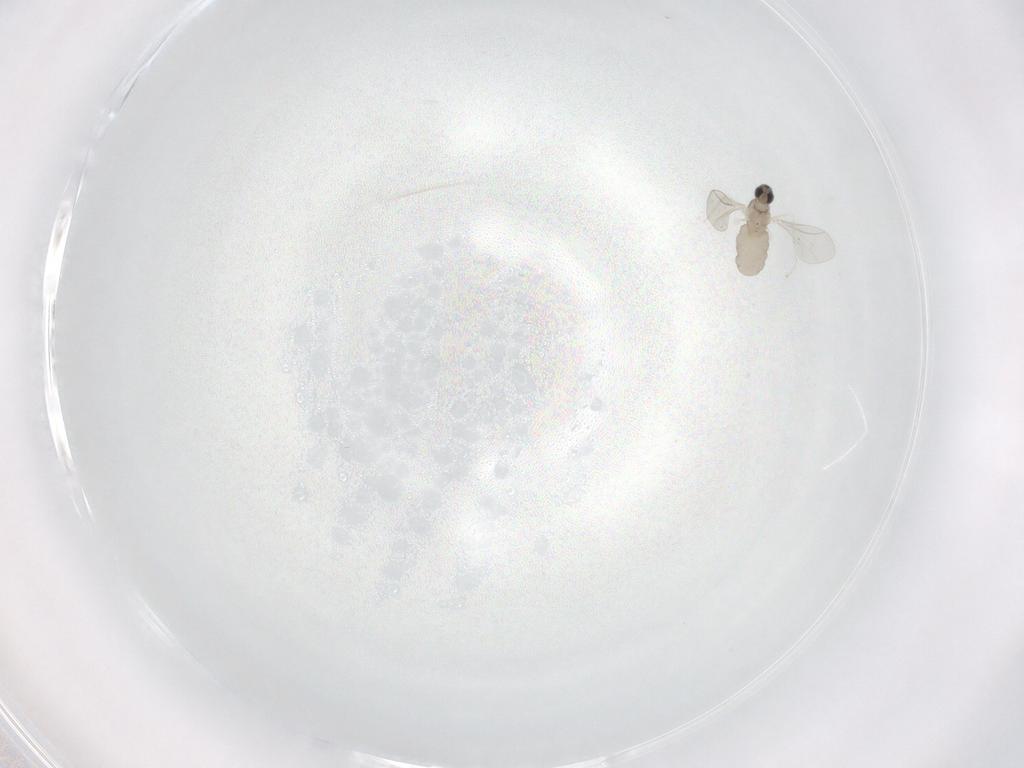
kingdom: Animalia
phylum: Arthropoda
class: Insecta
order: Diptera
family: Cecidomyiidae
